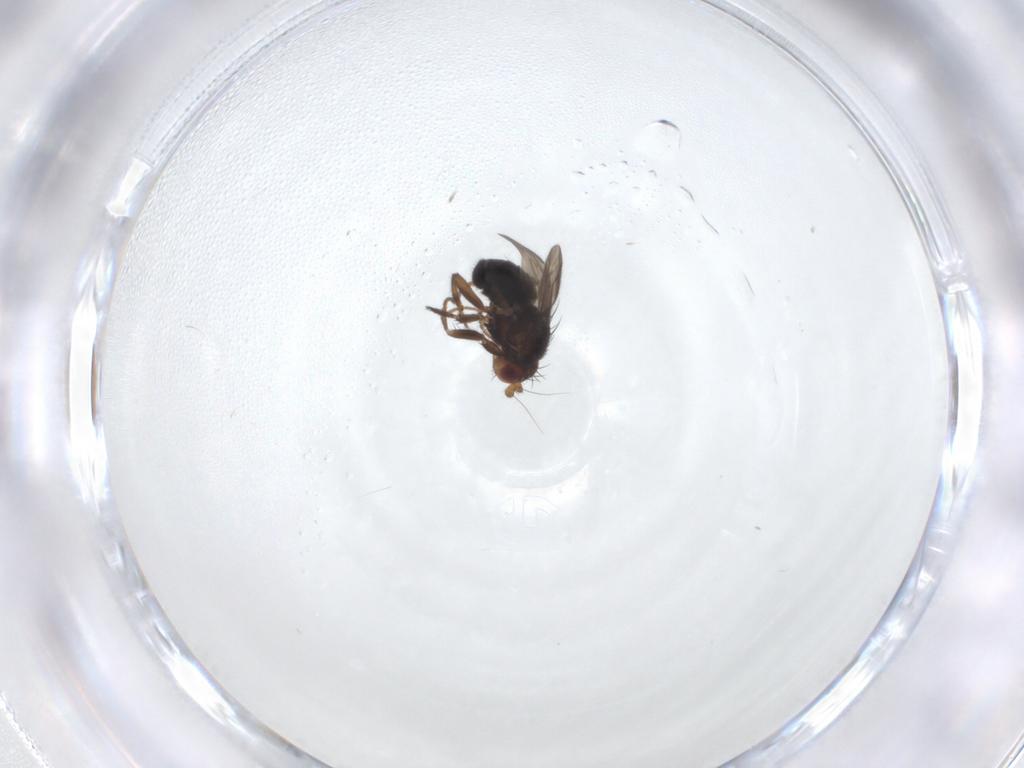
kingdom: Animalia
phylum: Arthropoda
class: Insecta
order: Diptera
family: Sphaeroceridae
